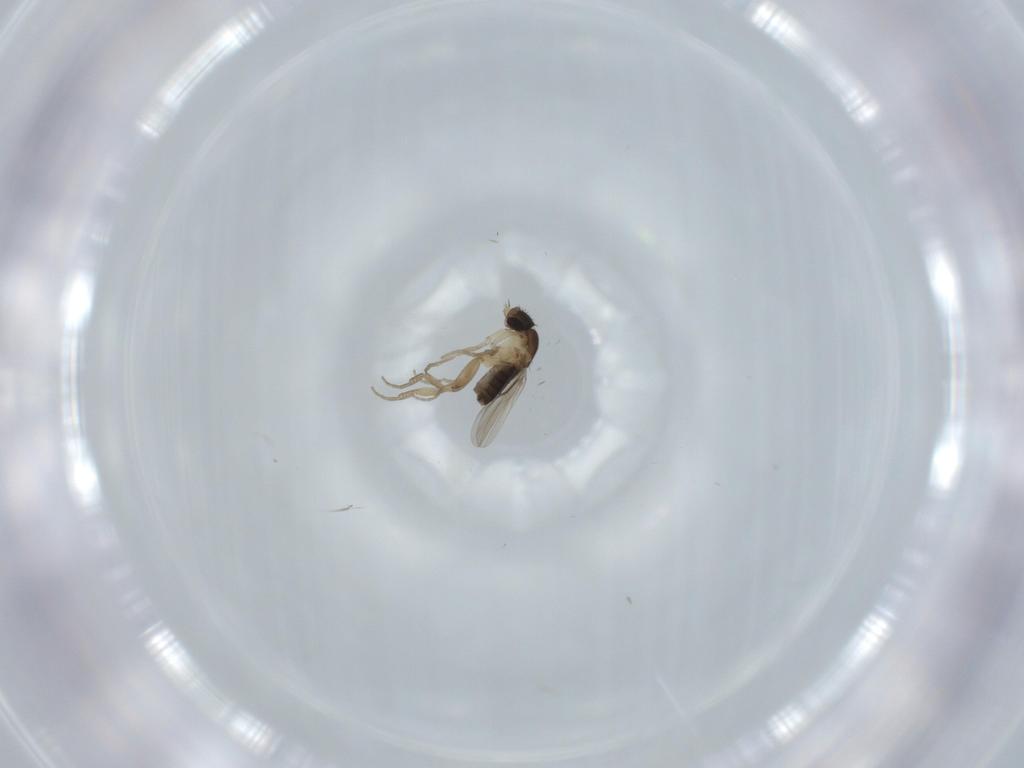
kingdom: Animalia
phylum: Arthropoda
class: Insecta
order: Diptera
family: Phoridae
